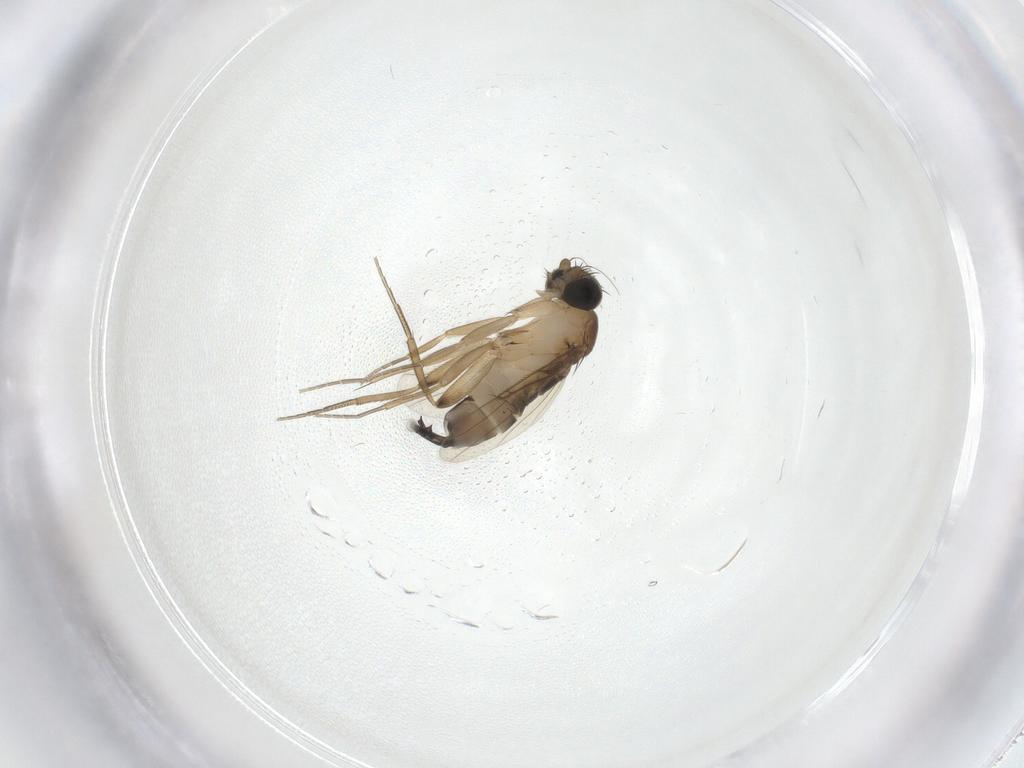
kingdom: Animalia
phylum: Arthropoda
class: Insecta
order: Diptera
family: Phoridae
